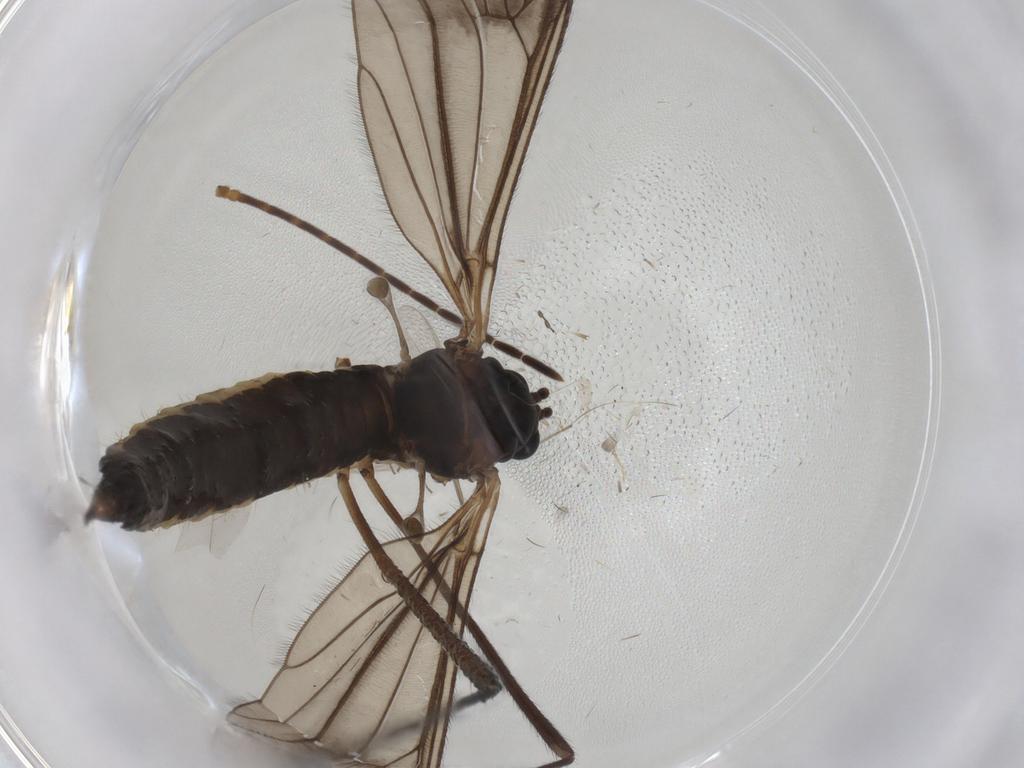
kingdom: Animalia
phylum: Arthropoda
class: Insecta
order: Diptera
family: Limoniidae
